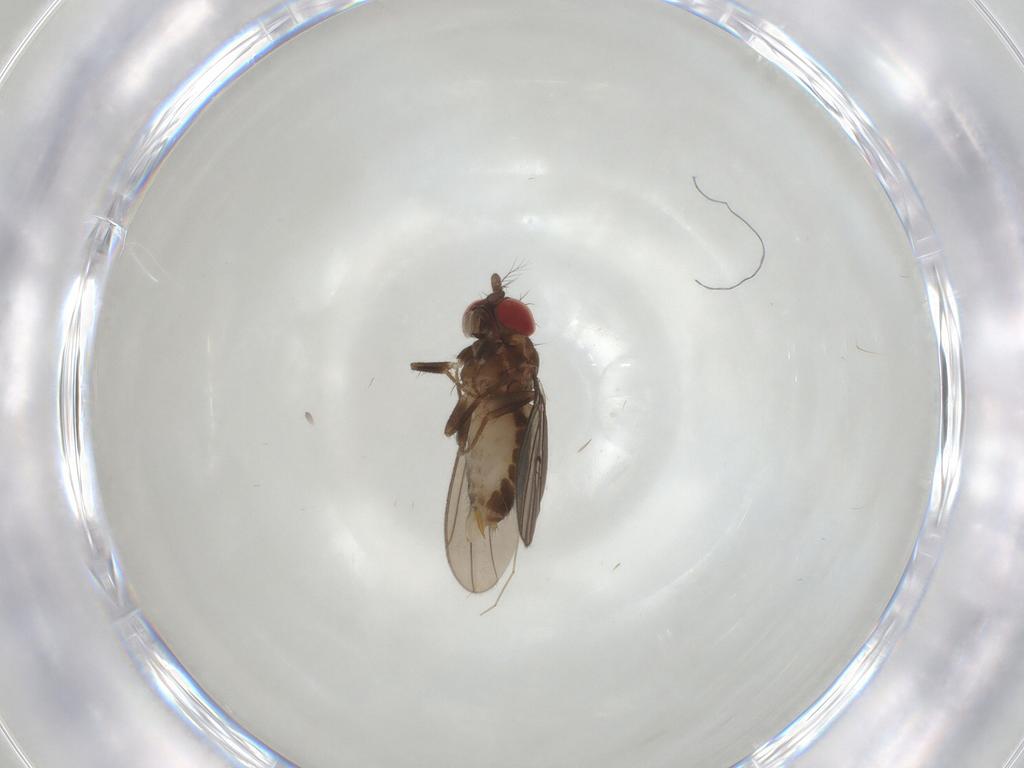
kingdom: Animalia
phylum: Arthropoda
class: Insecta
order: Diptera
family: Drosophilidae
